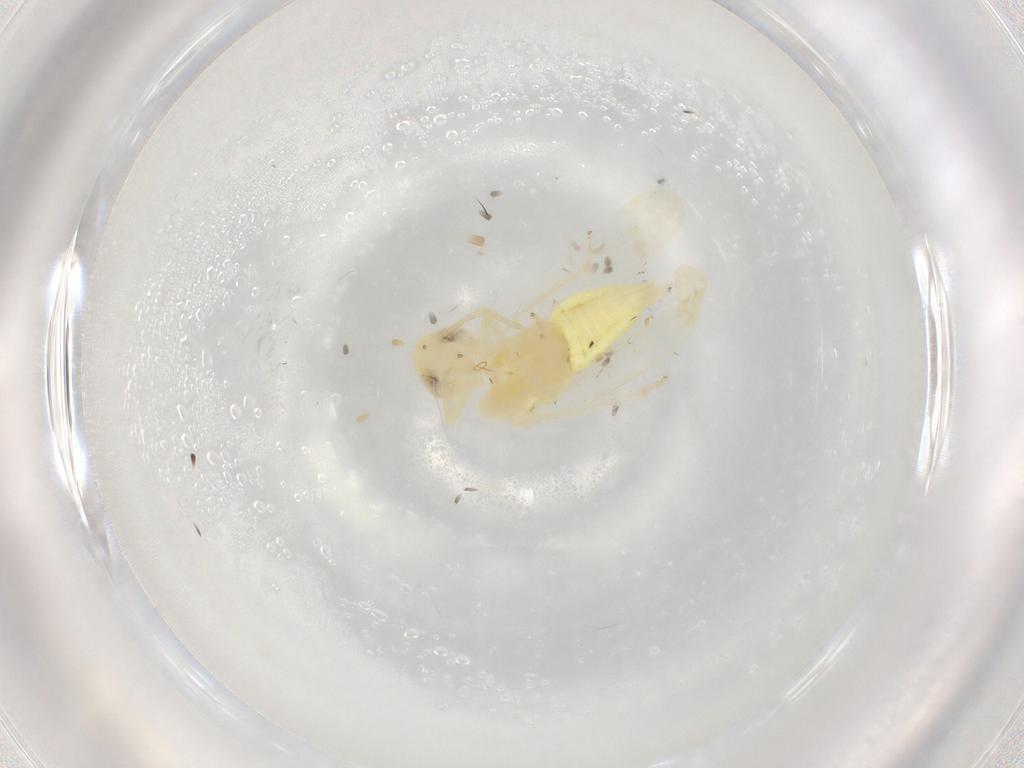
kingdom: Animalia
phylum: Arthropoda
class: Insecta
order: Hemiptera
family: Cicadellidae
